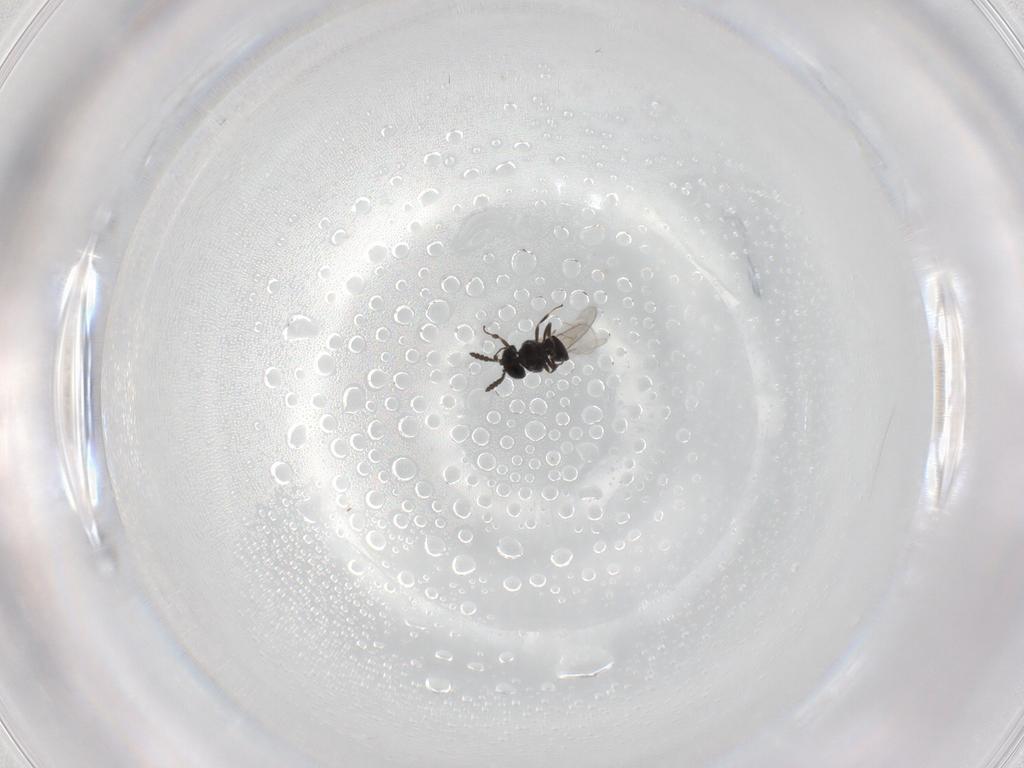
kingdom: Animalia
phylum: Arthropoda
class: Insecta
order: Hymenoptera
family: Scelionidae
